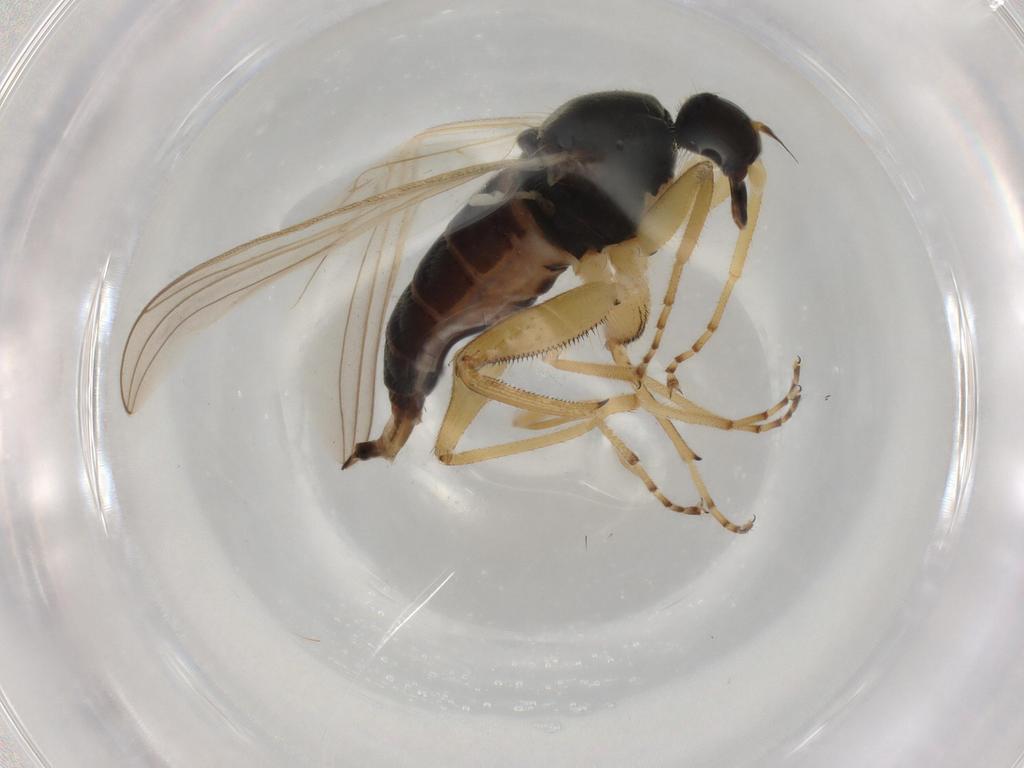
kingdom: Animalia
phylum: Arthropoda
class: Insecta
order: Diptera
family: Hybotidae
